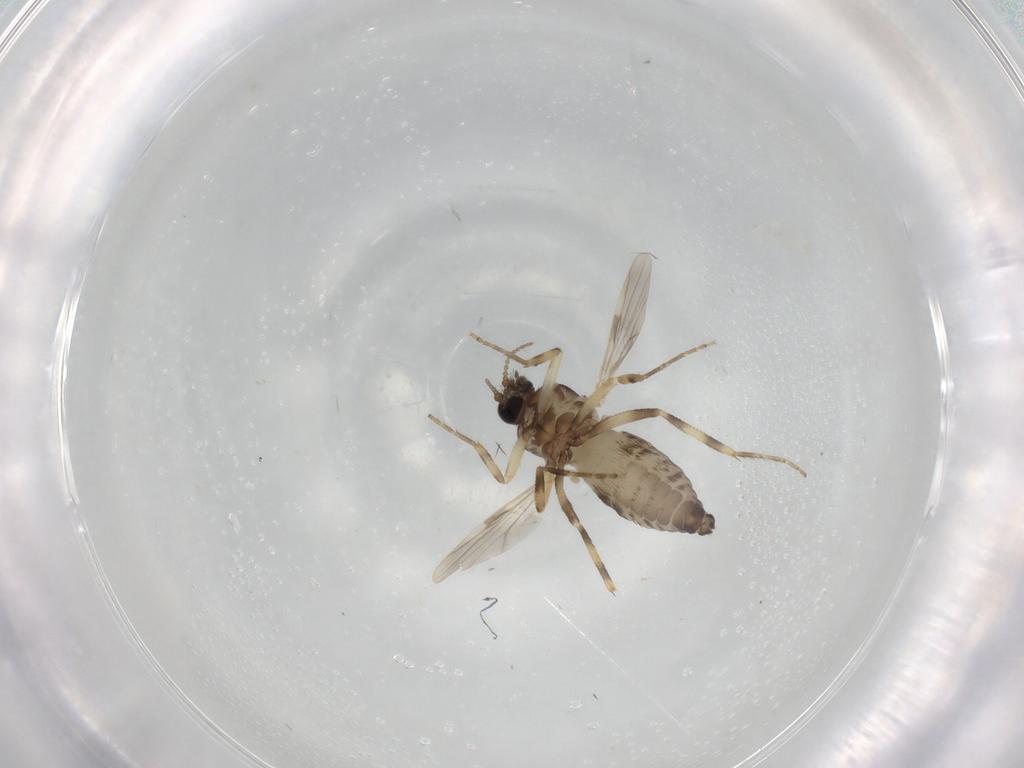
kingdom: Animalia
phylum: Arthropoda
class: Insecta
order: Diptera
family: Ceratopogonidae
